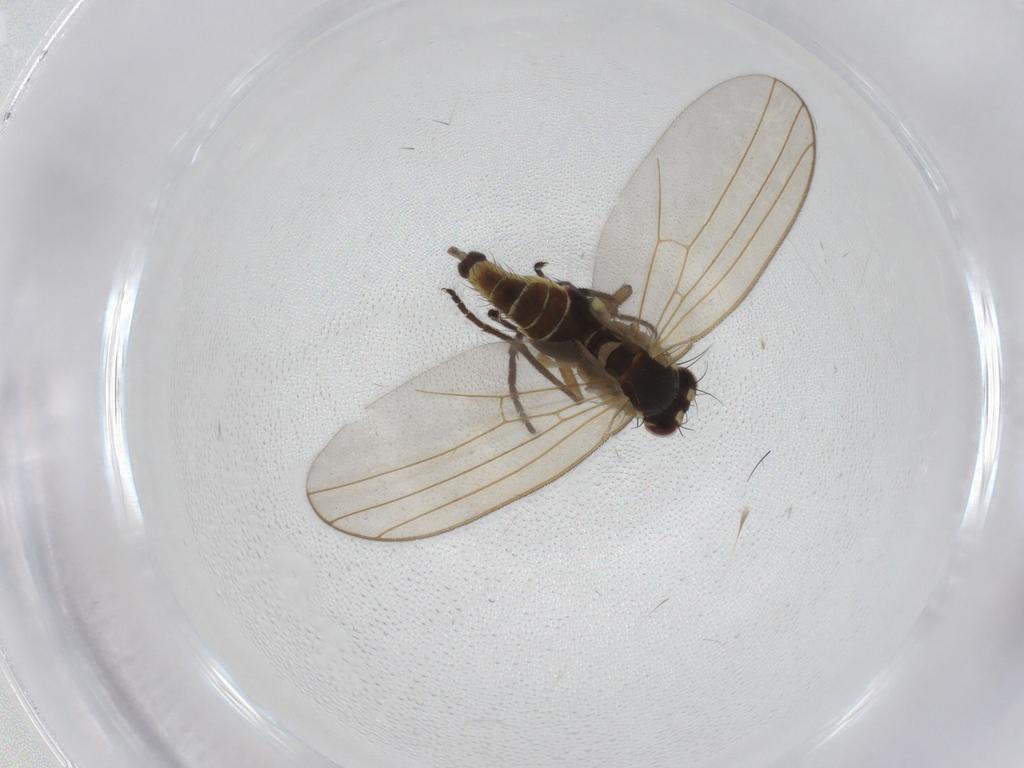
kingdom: Animalia
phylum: Arthropoda
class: Insecta
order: Diptera
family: Sciaridae
